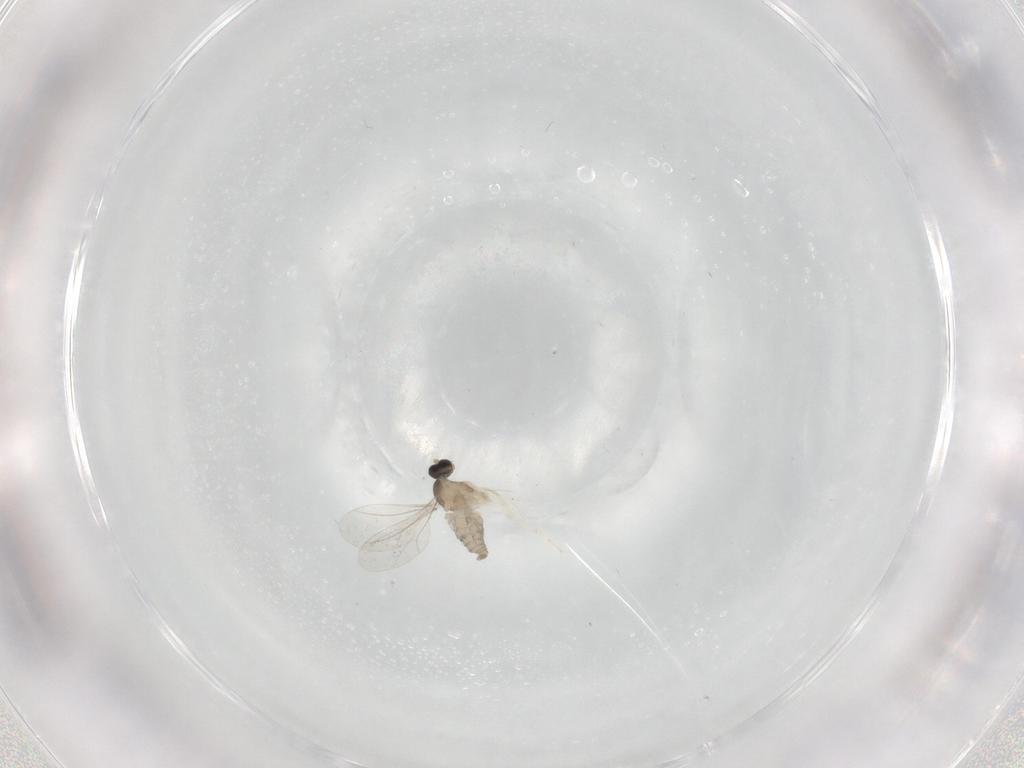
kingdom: Animalia
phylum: Arthropoda
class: Insecta
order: Diptera
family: Cecidomyiidae
